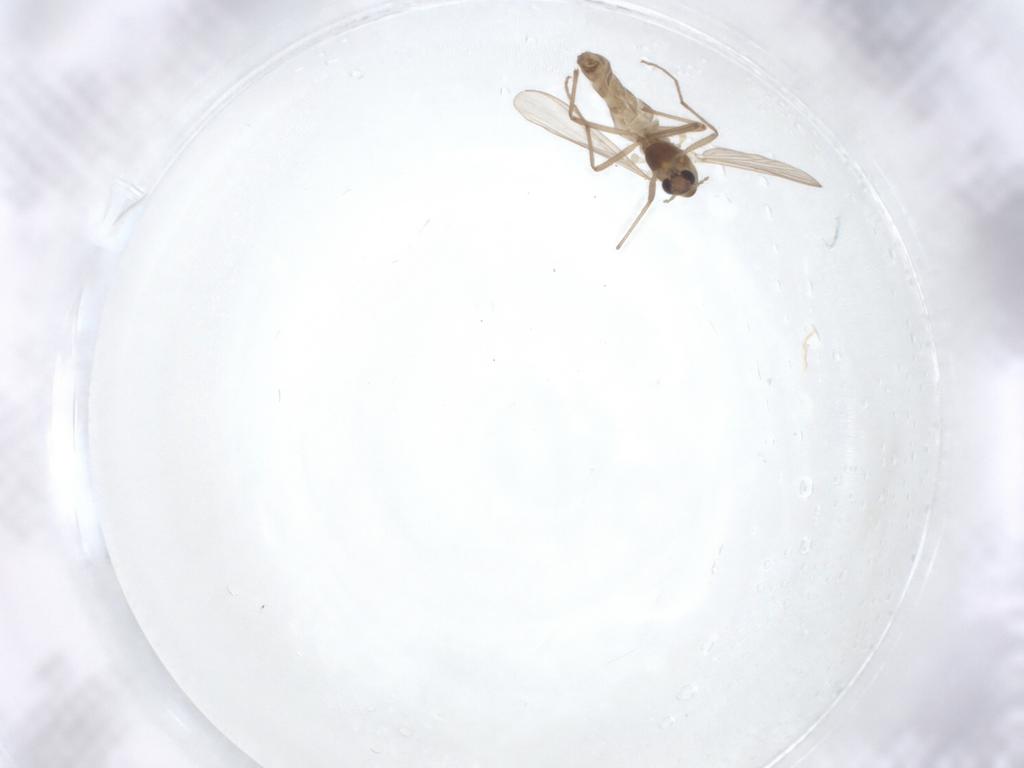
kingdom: Animalia
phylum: Arthropoda
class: Insecta
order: Diptera
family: Chironomidae
